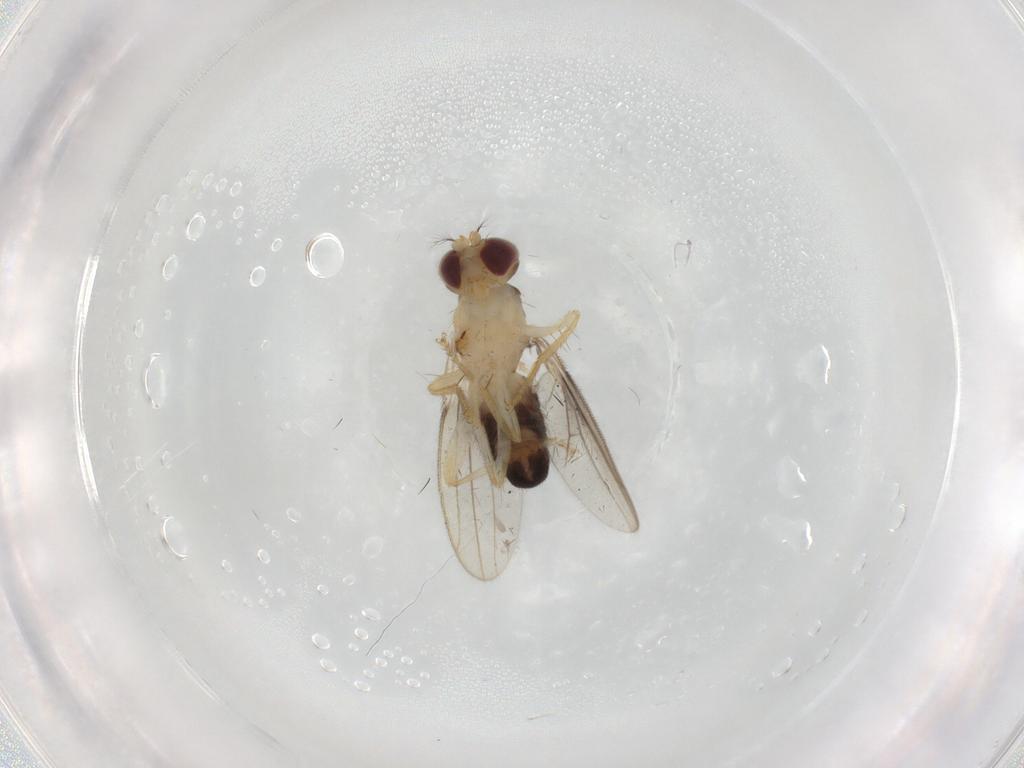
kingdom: Animalia
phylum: Arthropoda
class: Insecta
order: Diptera
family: Periscelididae
